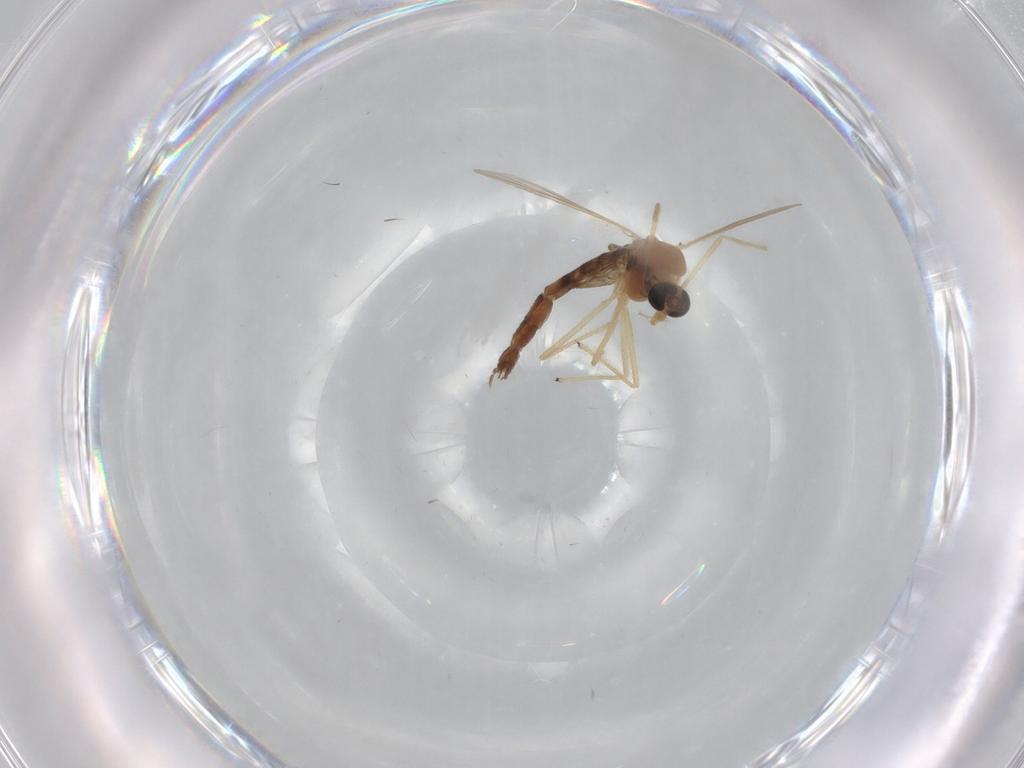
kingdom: Animalia
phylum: Arthropoda
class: Insecta
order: Diptera
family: Chironomidae
